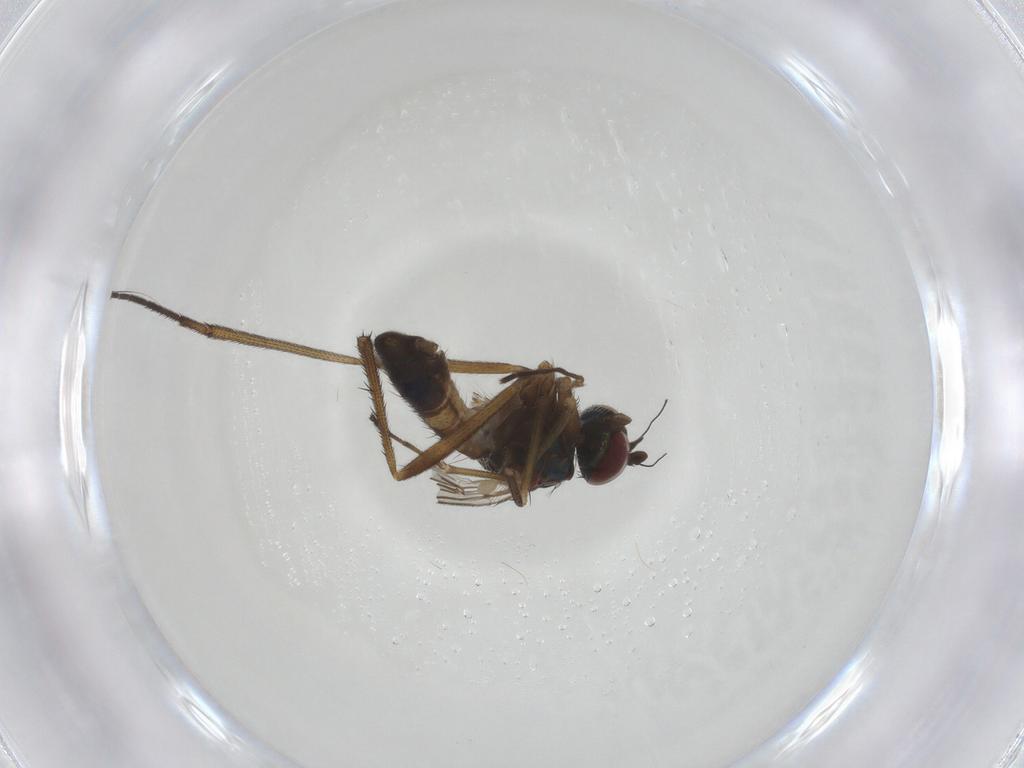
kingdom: Animalia
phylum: Arthropoda
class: Insecta
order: Diptera
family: Dolichopodidae
